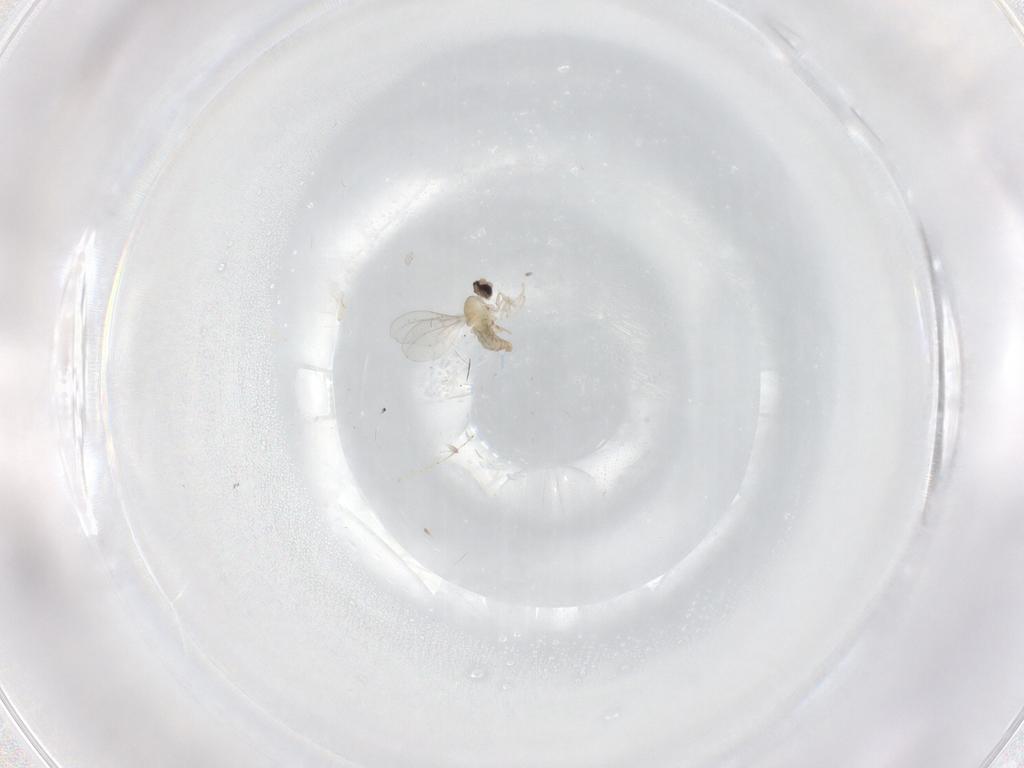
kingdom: Animalia
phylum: Arthropoda
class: Insecta
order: Diptera
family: Cecidomyiidae
